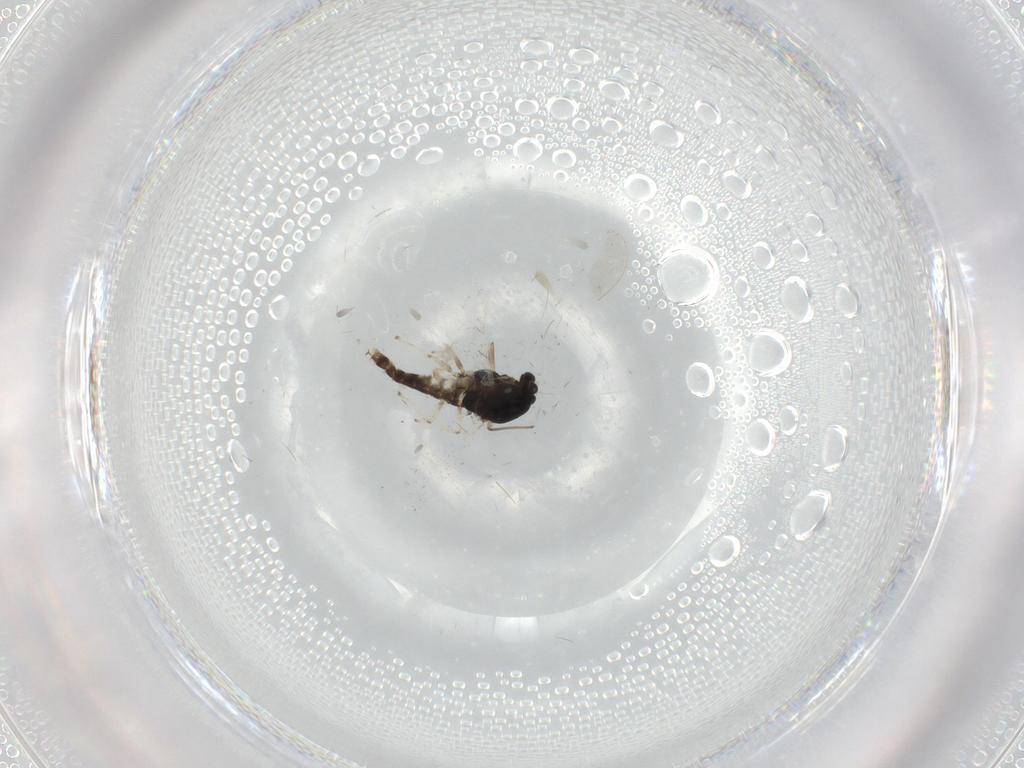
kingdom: Animalia
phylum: Arthropoda
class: Insecta
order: Diptera
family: Chironomidae
